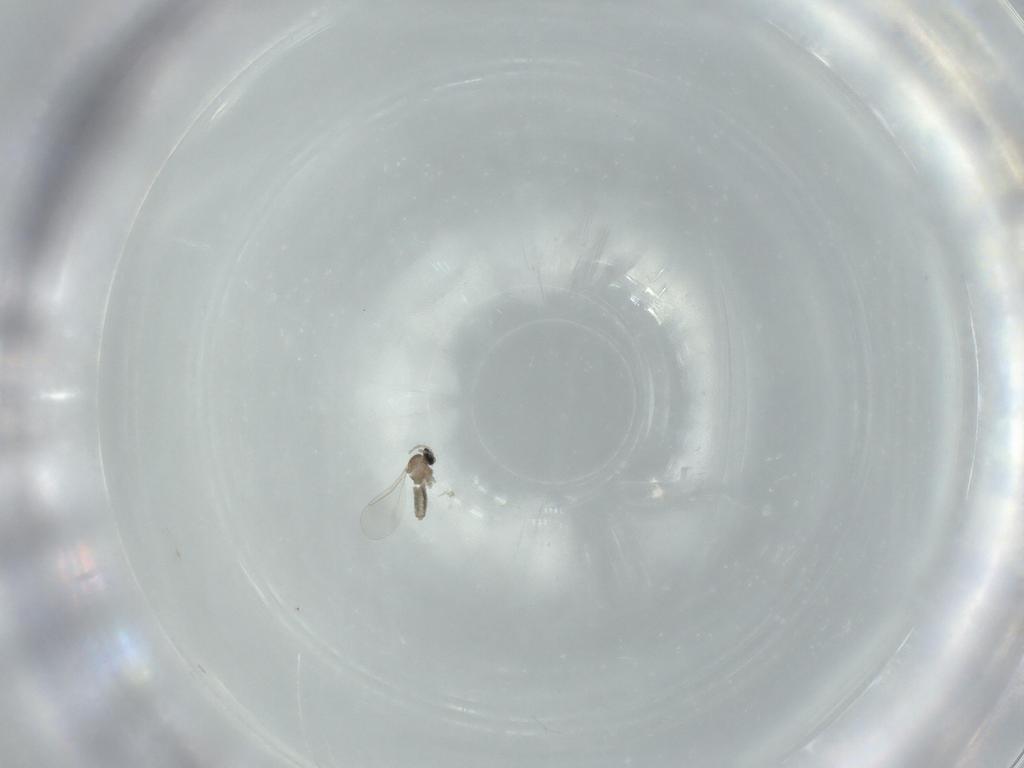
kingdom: Animalia
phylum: Arthropoda
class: Insecta
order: Diptera
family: Cecidomyiidae
